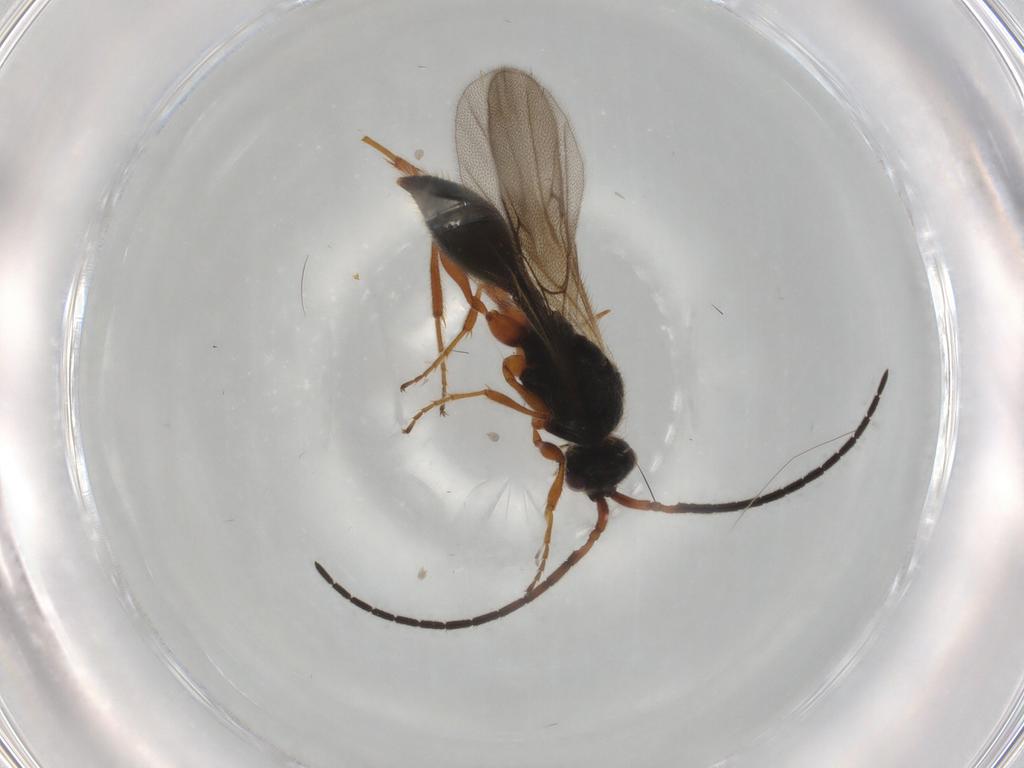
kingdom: Animalia
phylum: Arthropoda
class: Insecta
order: Hymenoptera
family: Ichneumonidae
